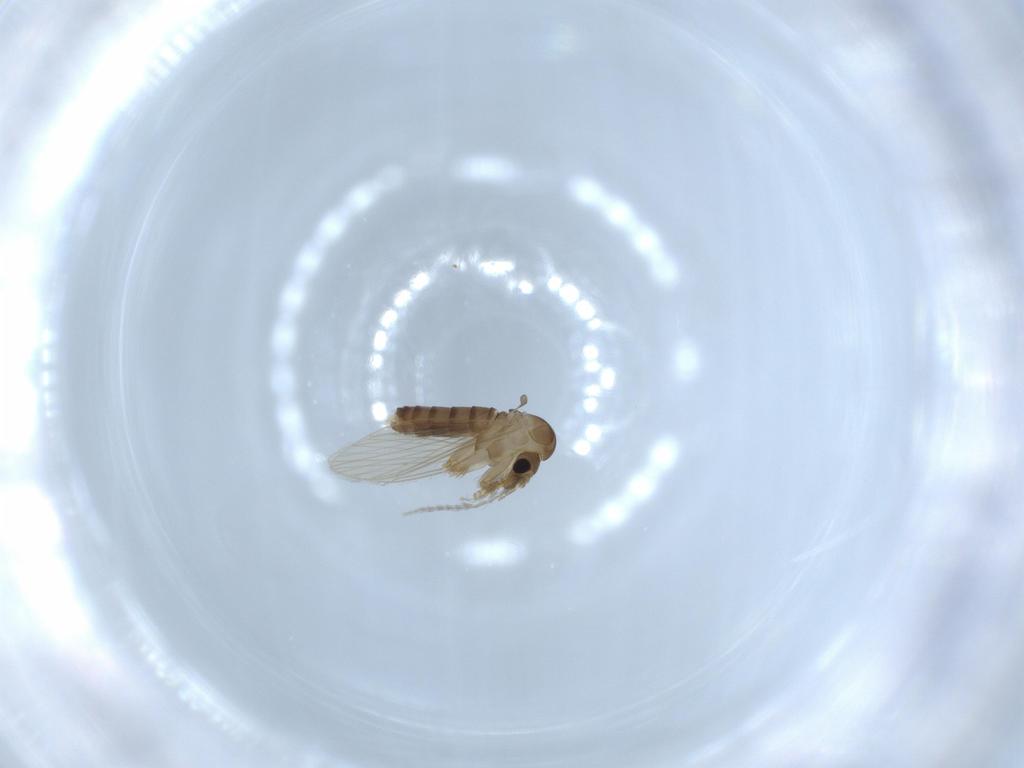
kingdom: Animalia
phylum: Arthropoda
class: Insecta
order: Diptera
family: Psychodidae
